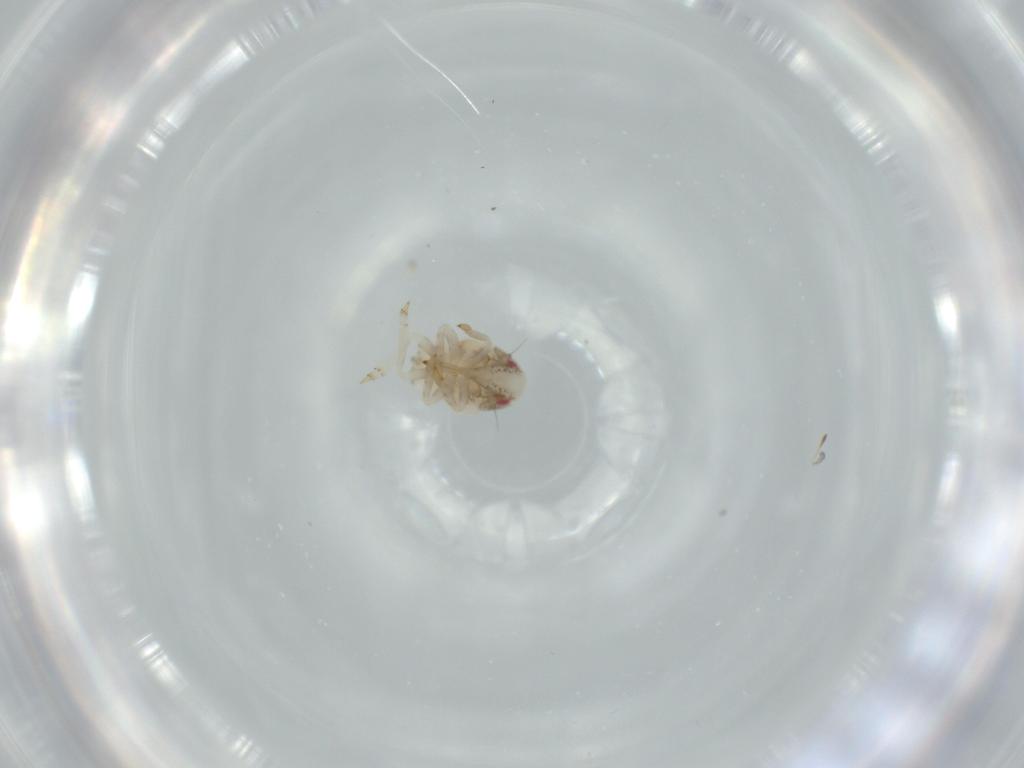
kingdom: Animalia
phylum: Arthropoda
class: Insecta
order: Hemiptera
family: Acanaloniidae
